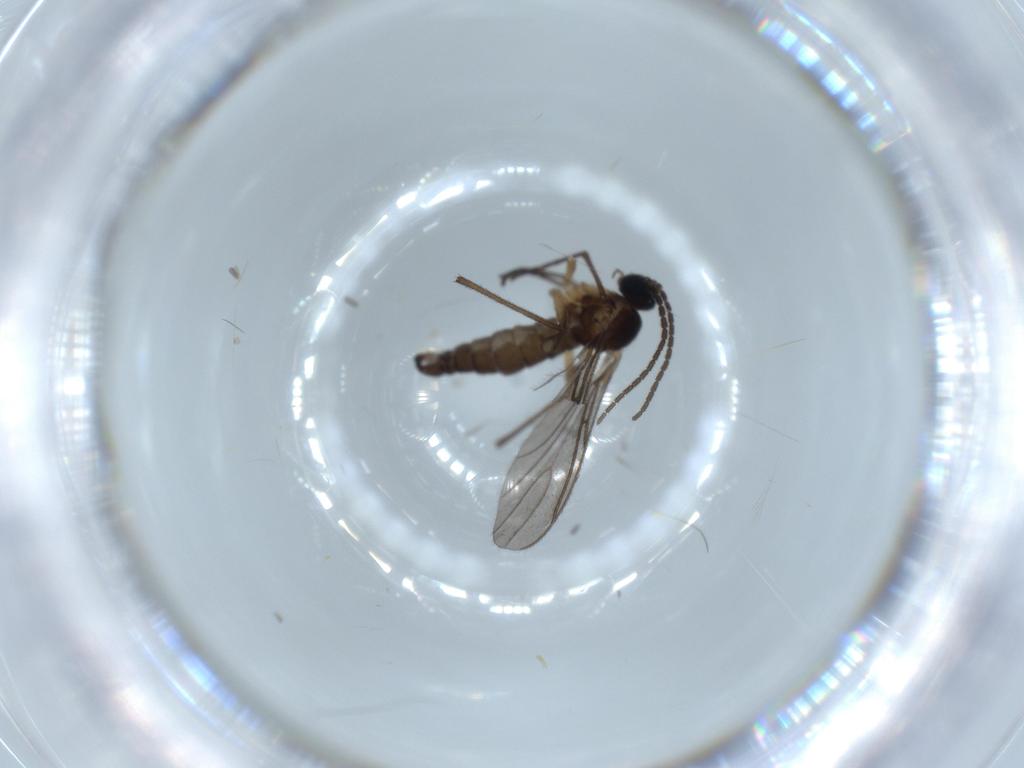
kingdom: Animalia
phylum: Arthropoda
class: Insecta
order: Diptera
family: Sciaridae
